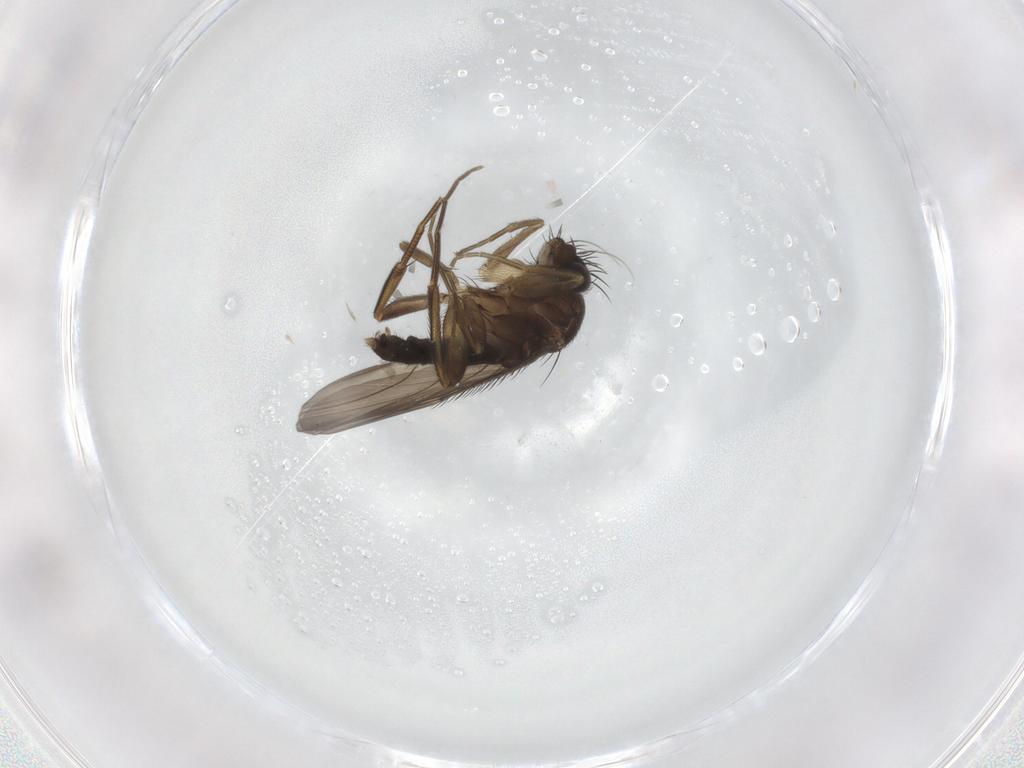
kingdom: Animalia
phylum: Arthropoda
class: Insecta
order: Diptera
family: Phoridae
